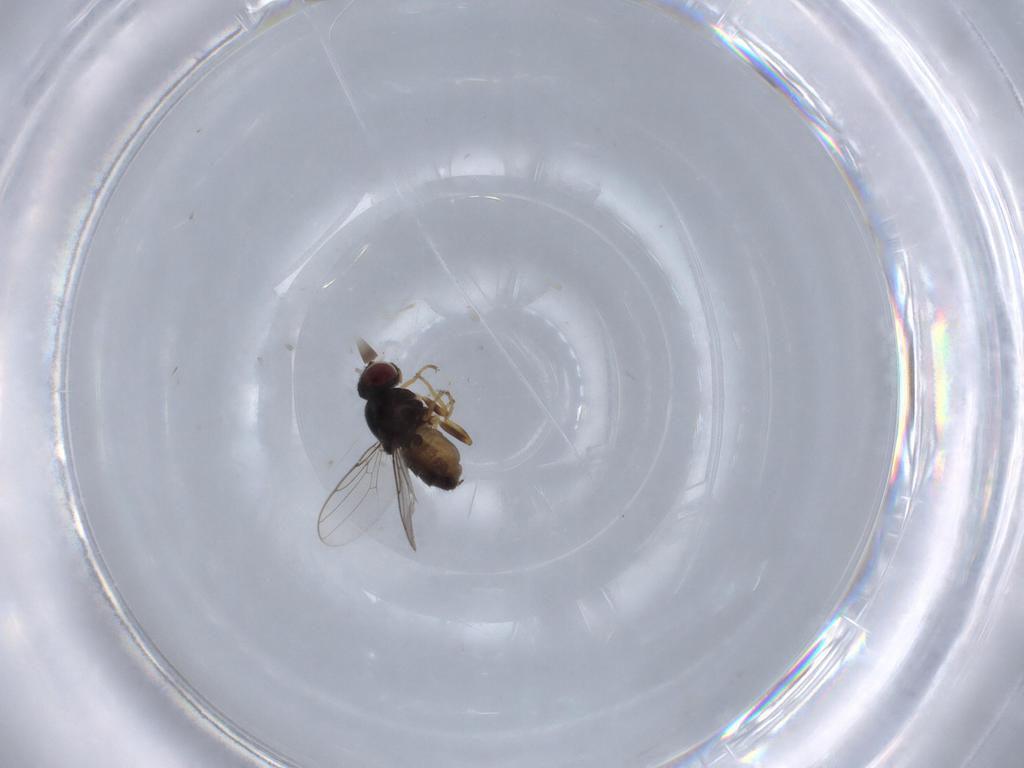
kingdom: Animalia
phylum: Arthropoda
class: Insecta
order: Diptera
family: Chloropidae
